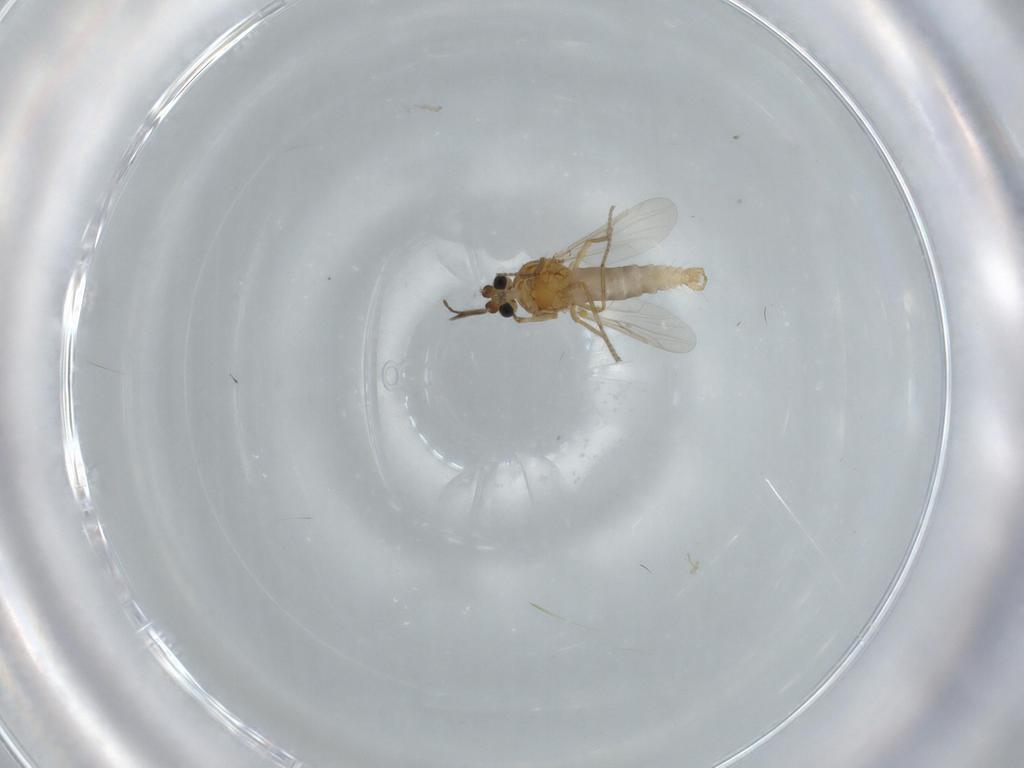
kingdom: Animalia
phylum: Arthropoda
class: Insecta
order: Diptera
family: Ceratopogonidae
